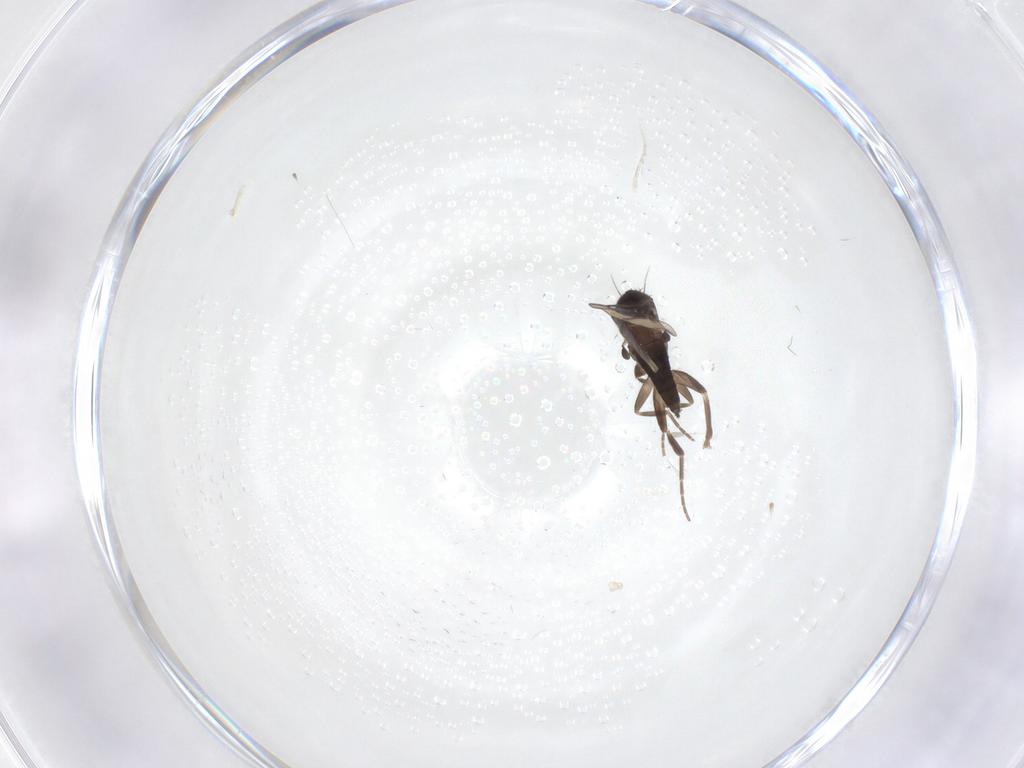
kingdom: Animalia
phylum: Arthropoda
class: Insecta
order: Diptera
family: Phoridae
